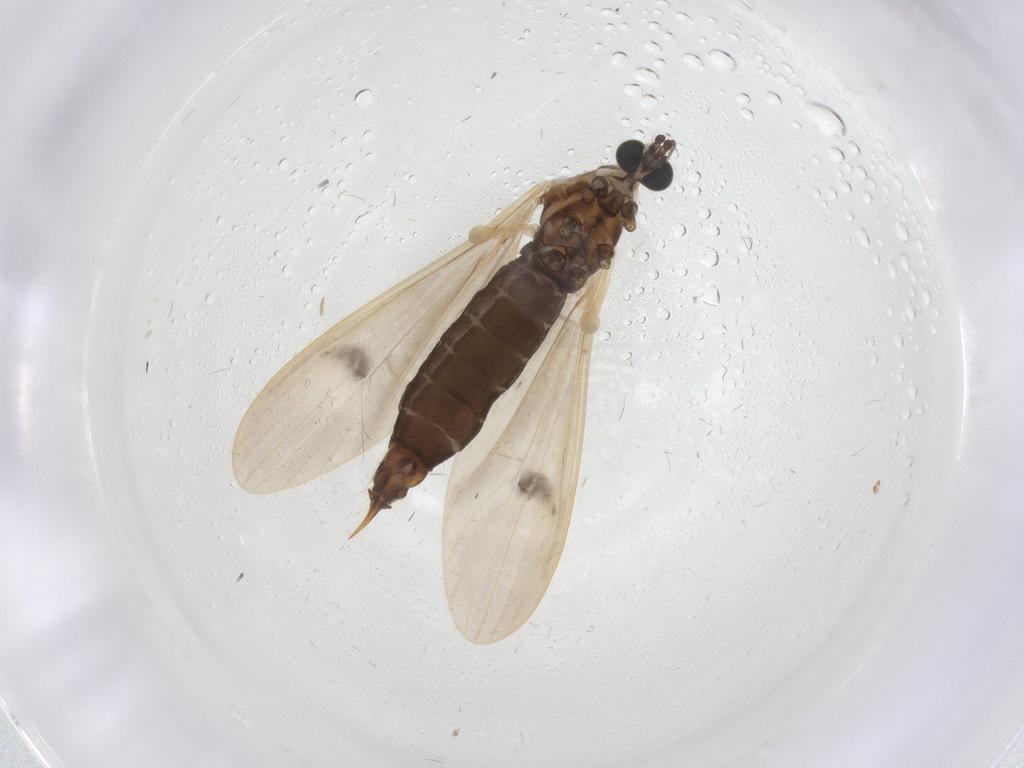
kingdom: Animalia
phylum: Arthropoda
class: Insecta
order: Diptera
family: Limoniidae
